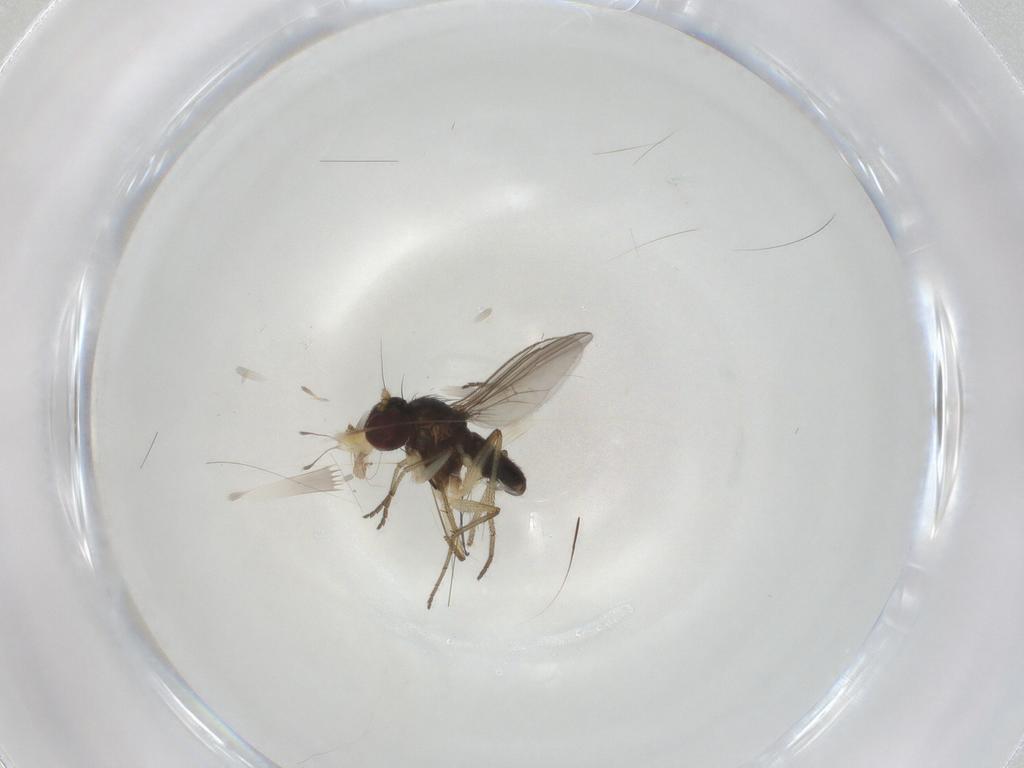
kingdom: Animalia
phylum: Arthropoda
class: Insecta
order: Diptera
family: Dolichopodidae
